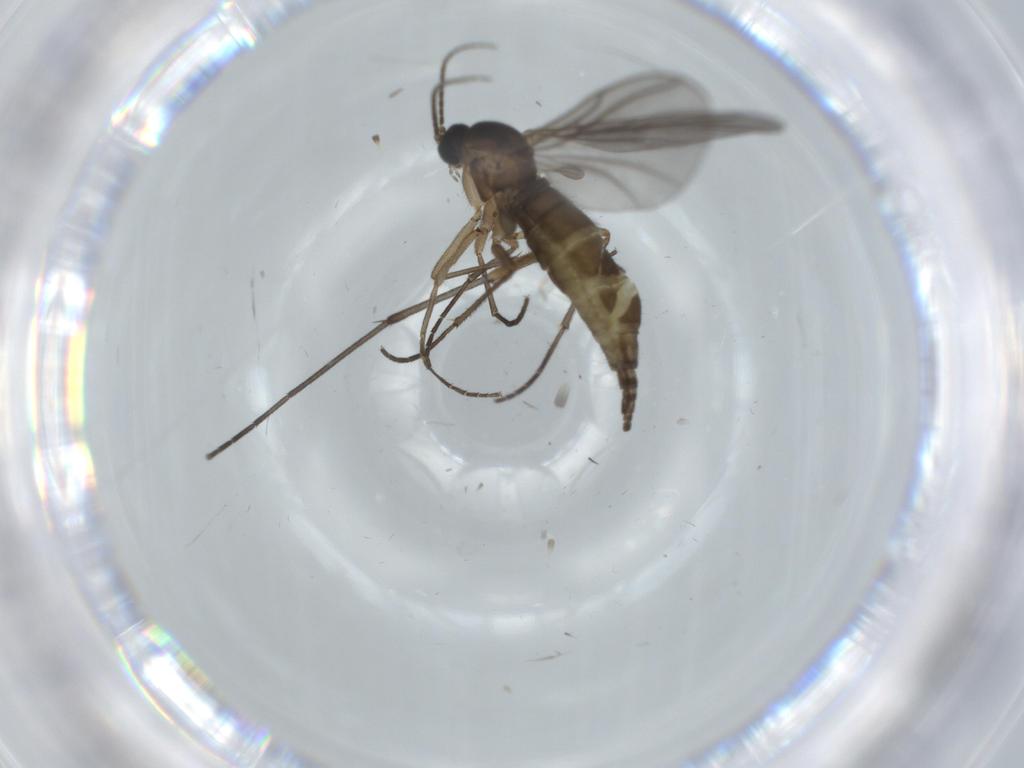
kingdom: Animalia
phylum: Arthropoda
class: Insecta
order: Diptera
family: Sciaridae
